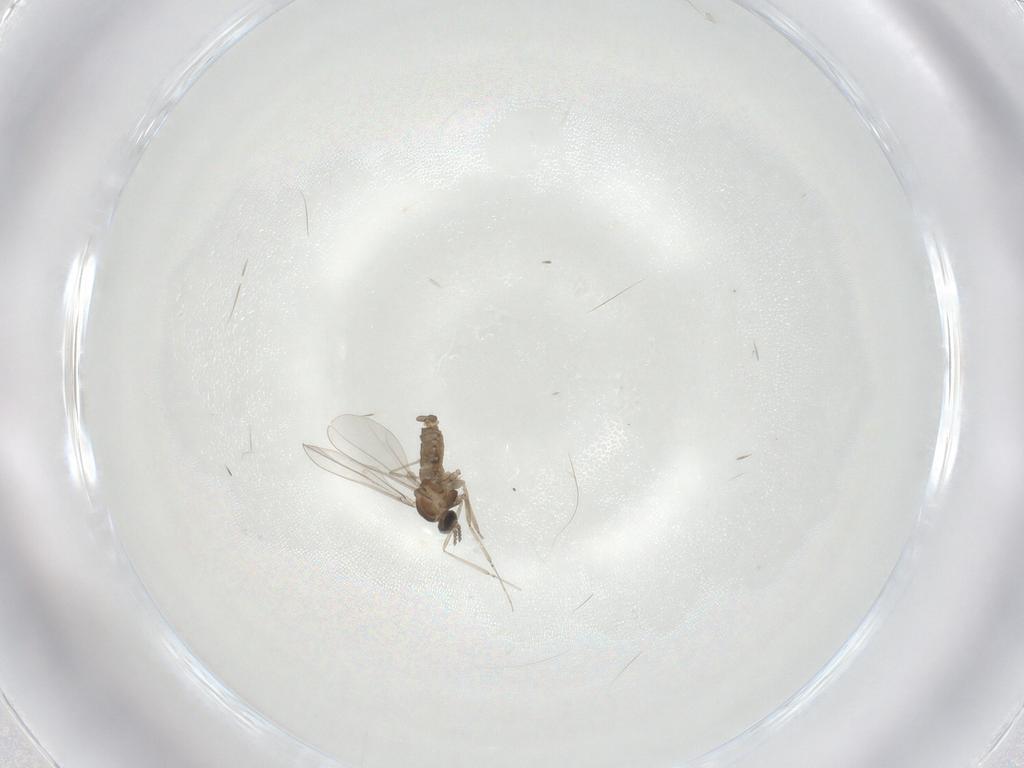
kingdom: Animalia
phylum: Arthropoda
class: Insecta
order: Diptera
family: Cecidomyiidae
